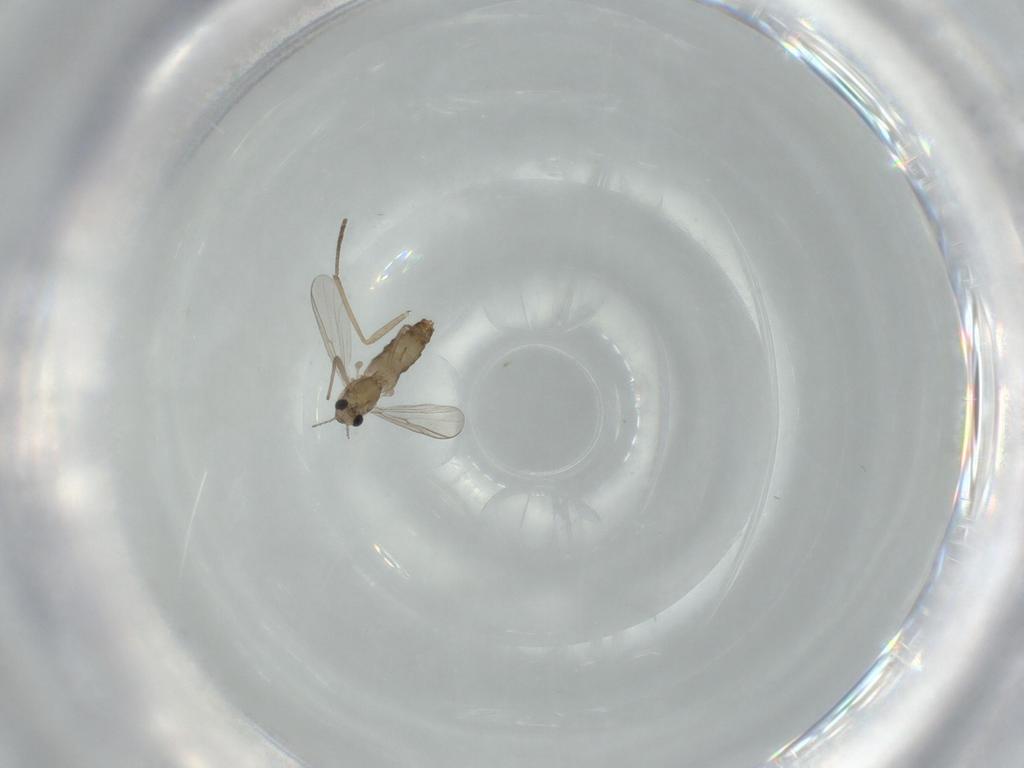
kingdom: Animalia
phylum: Arthropoda
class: Insecta
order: Diptera
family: Chironomidae
